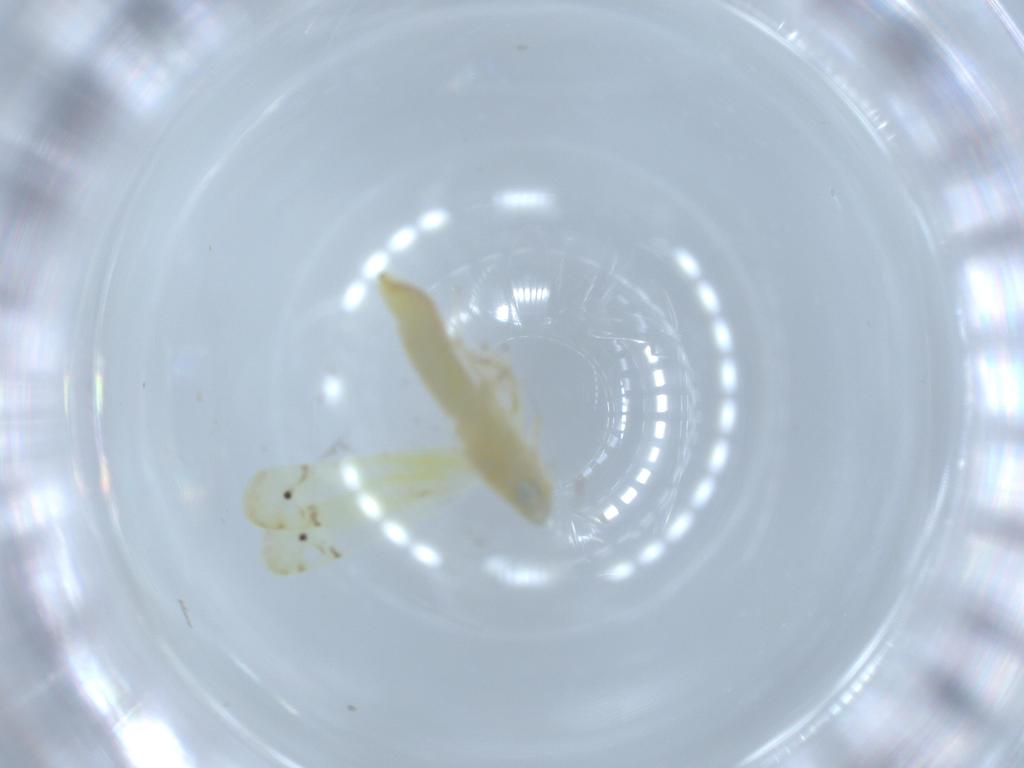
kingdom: Animalia
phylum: Arthropoda
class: Insecta
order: Hemiptera
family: Cicadellidae
